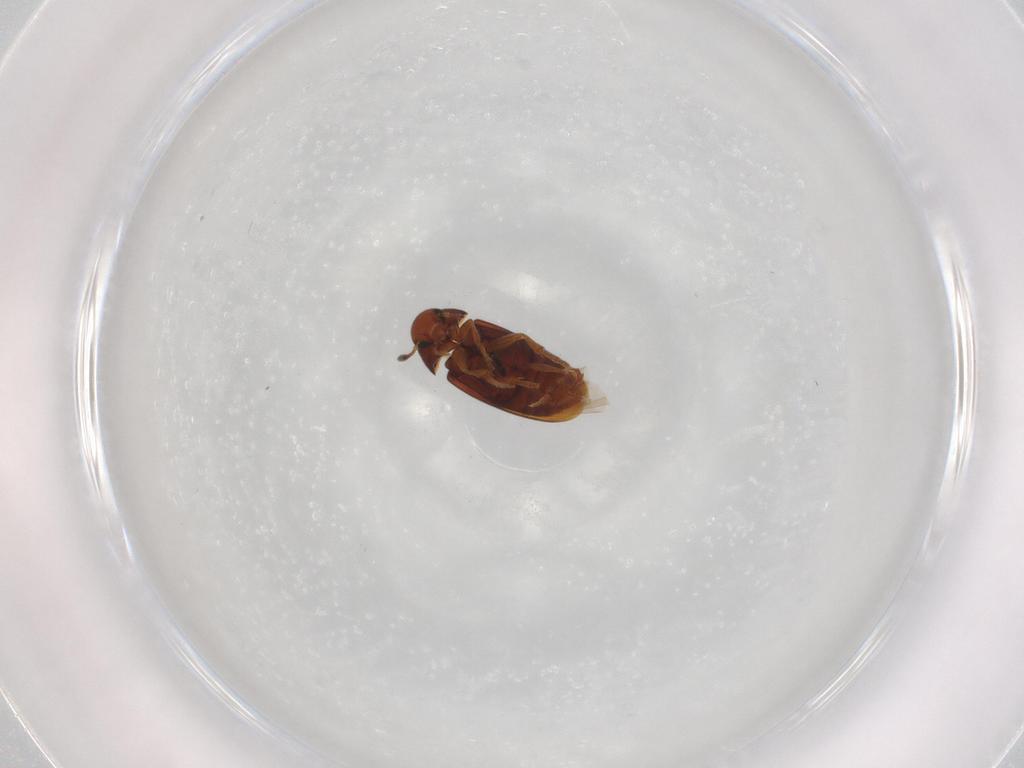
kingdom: Animalia
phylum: Arthropoda
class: Insecta
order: Coleoptera
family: Scraptiidae
